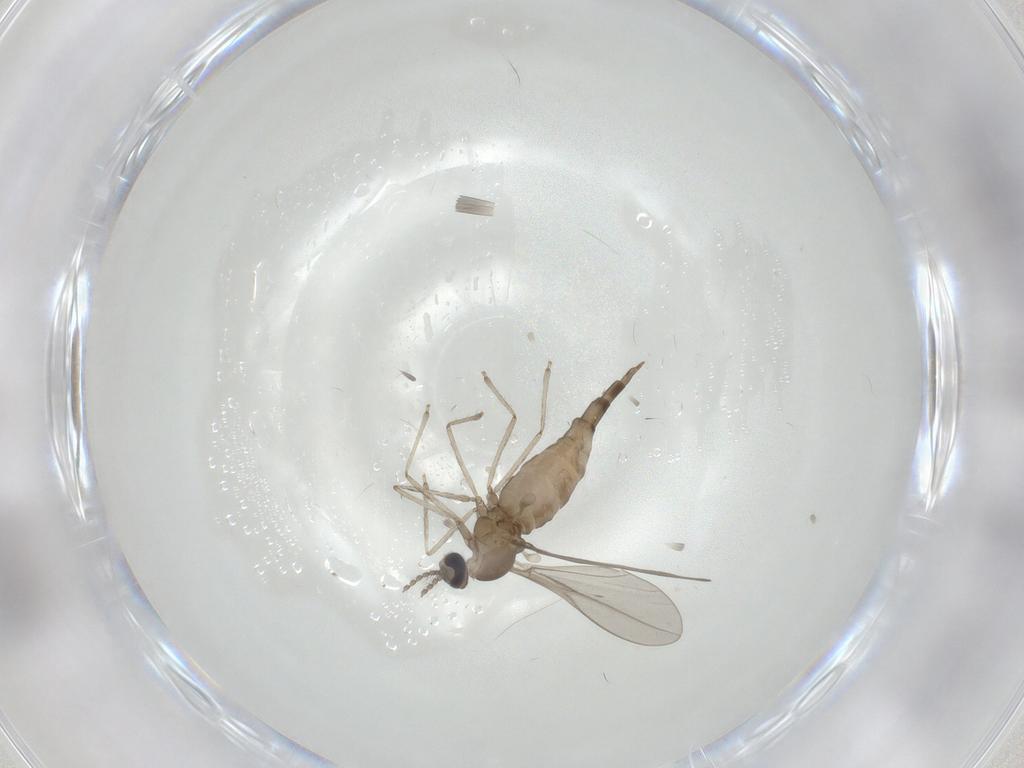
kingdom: Animalia
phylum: Arthropoda
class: Insecta
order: Diptera
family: Cecidomyiidae
